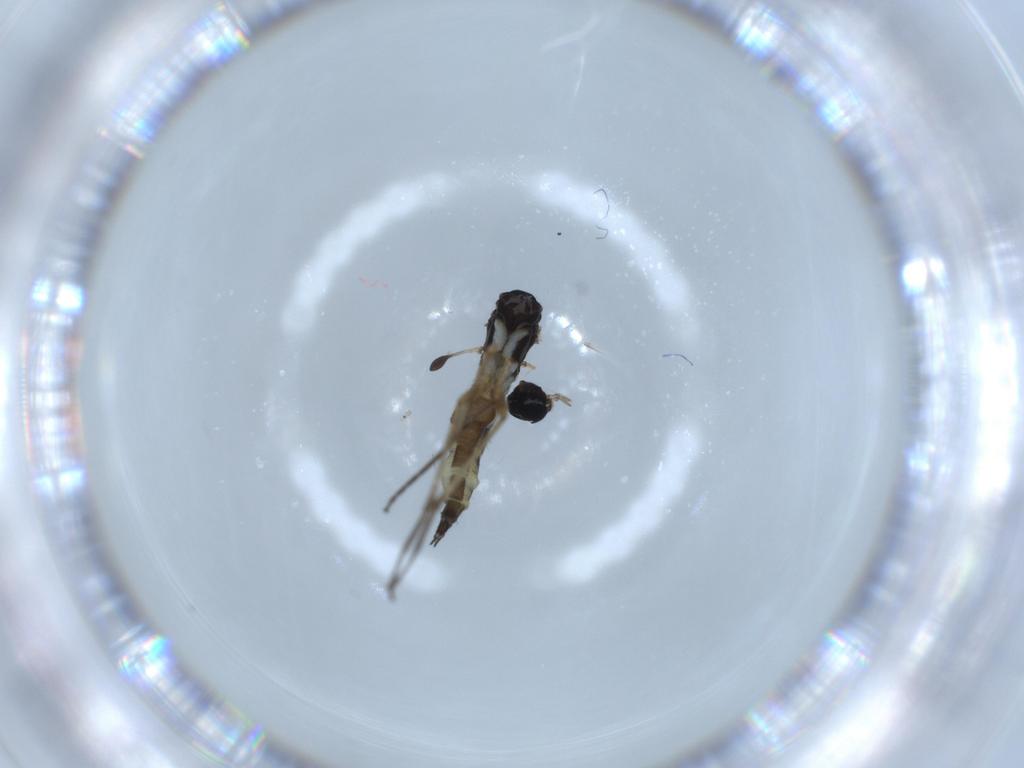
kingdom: Animalia
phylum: Arthropoda
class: Insecta
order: Diptera
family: Sciaridae
